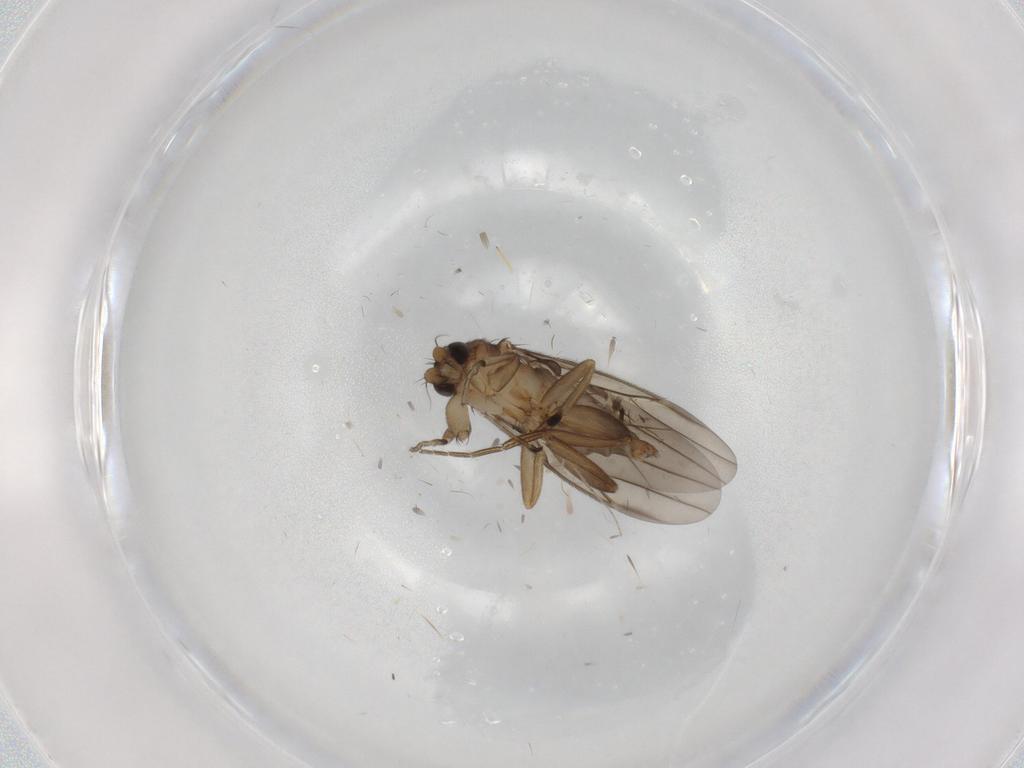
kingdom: Animalia
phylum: Arthropoda
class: Insecta
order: Diptera
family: Phoridae
